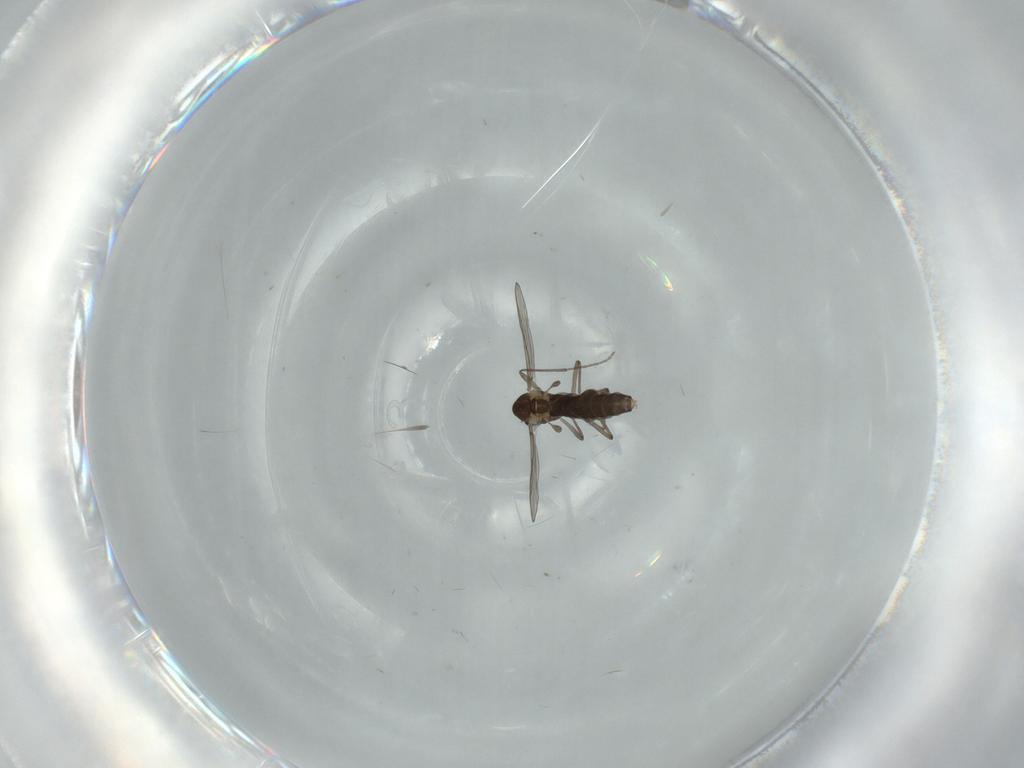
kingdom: Animalia
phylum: Arthropoda
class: Insecta
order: Diptera
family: Chironomidae
